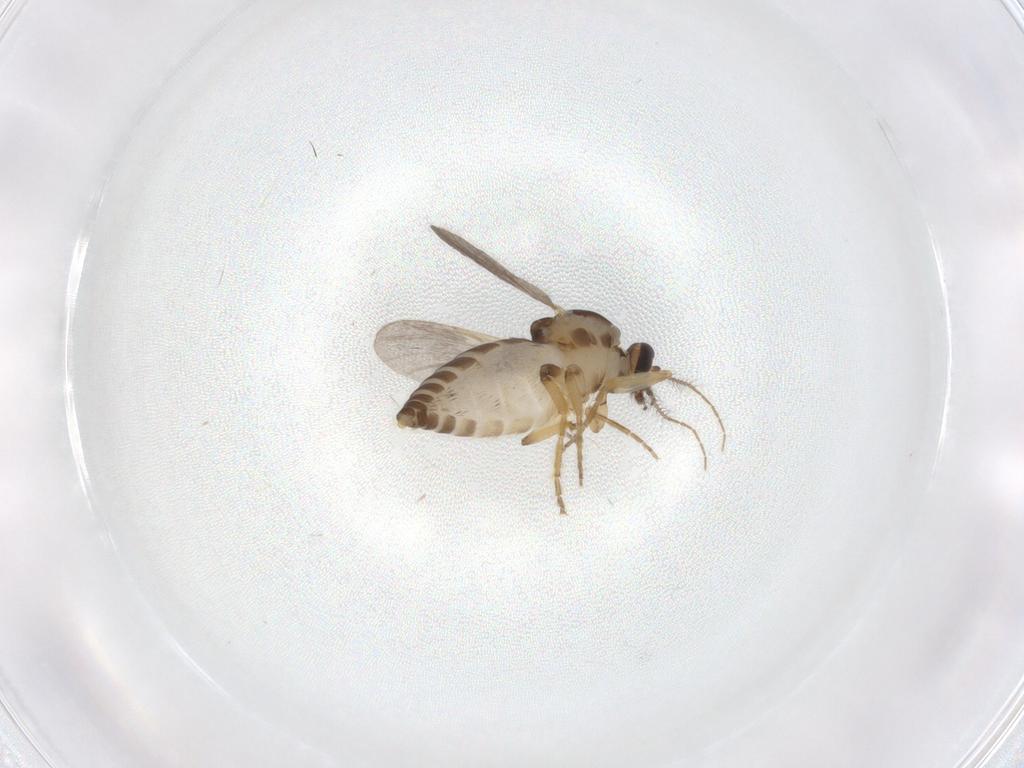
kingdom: Animalia
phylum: Arthropoda
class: Insecta
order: Diptera
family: Ceratopogonidae
